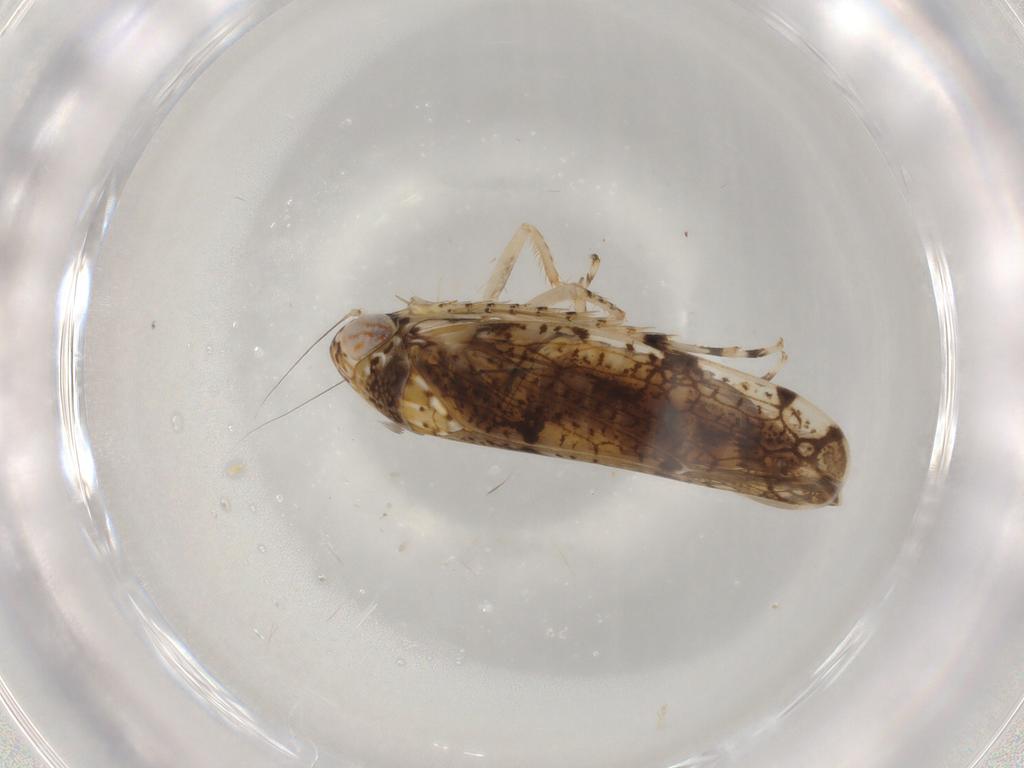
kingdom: Animalia
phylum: Arthropoda
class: Insecta
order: Hemiptera
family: Cicadellidae
